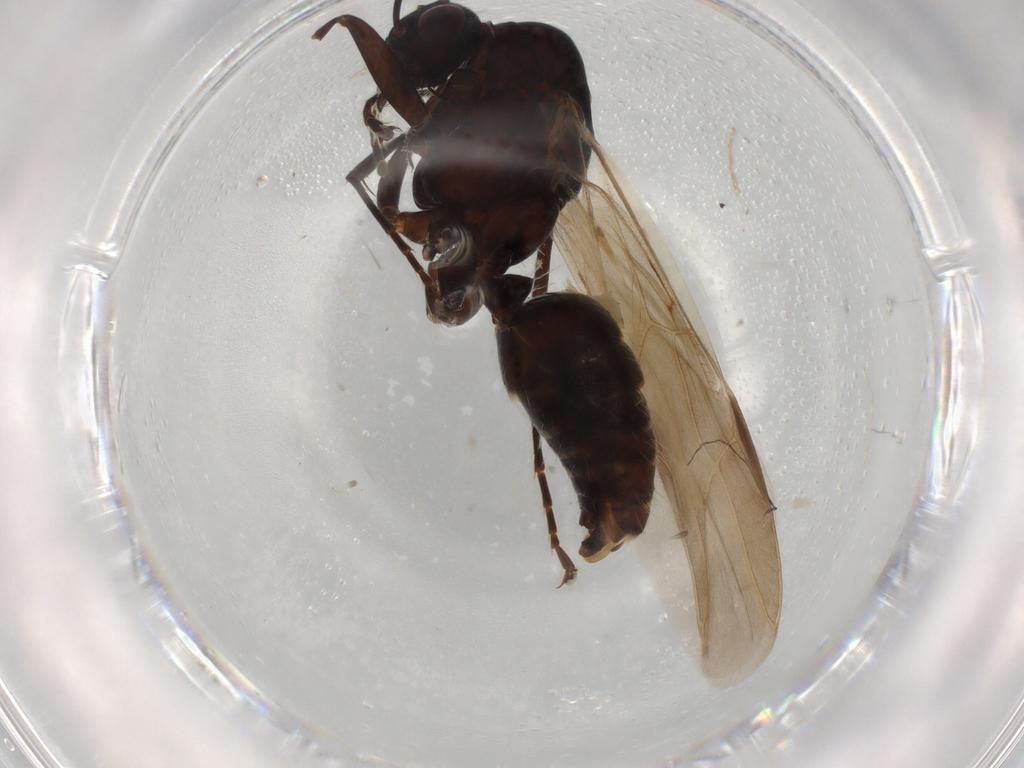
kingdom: Animalia
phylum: Arthropoda
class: Insecta
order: Hymenoptera
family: Formicidae
